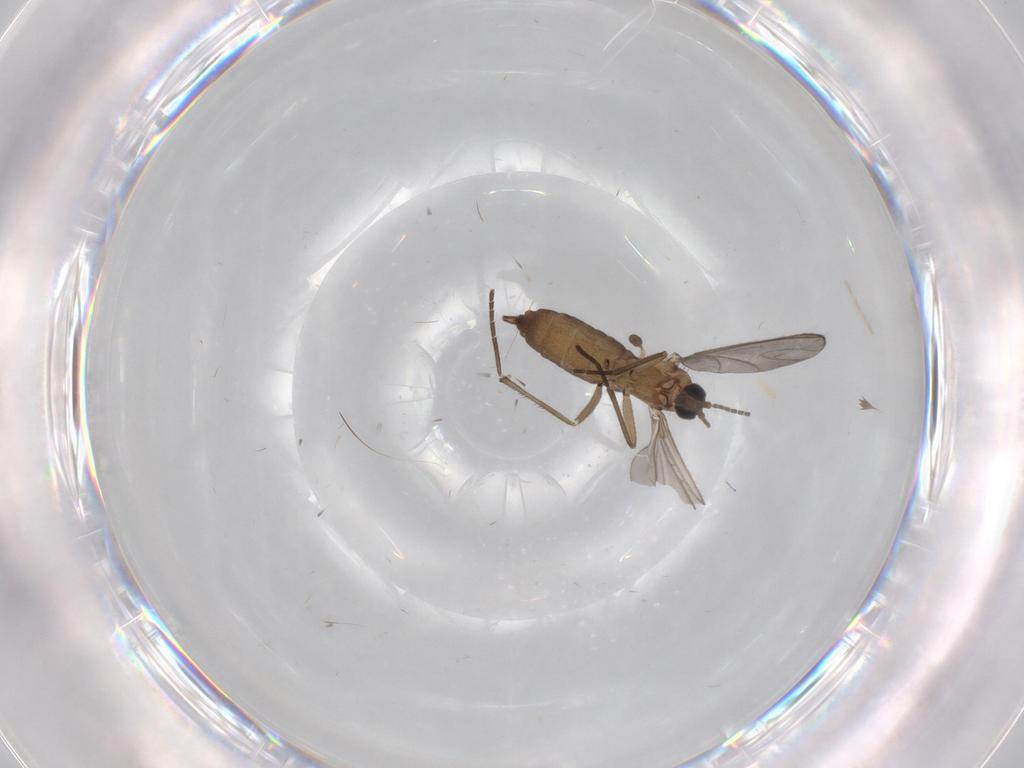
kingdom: Animalia
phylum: Arthropoda
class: Insecta
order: Diptera
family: Chironomidae
